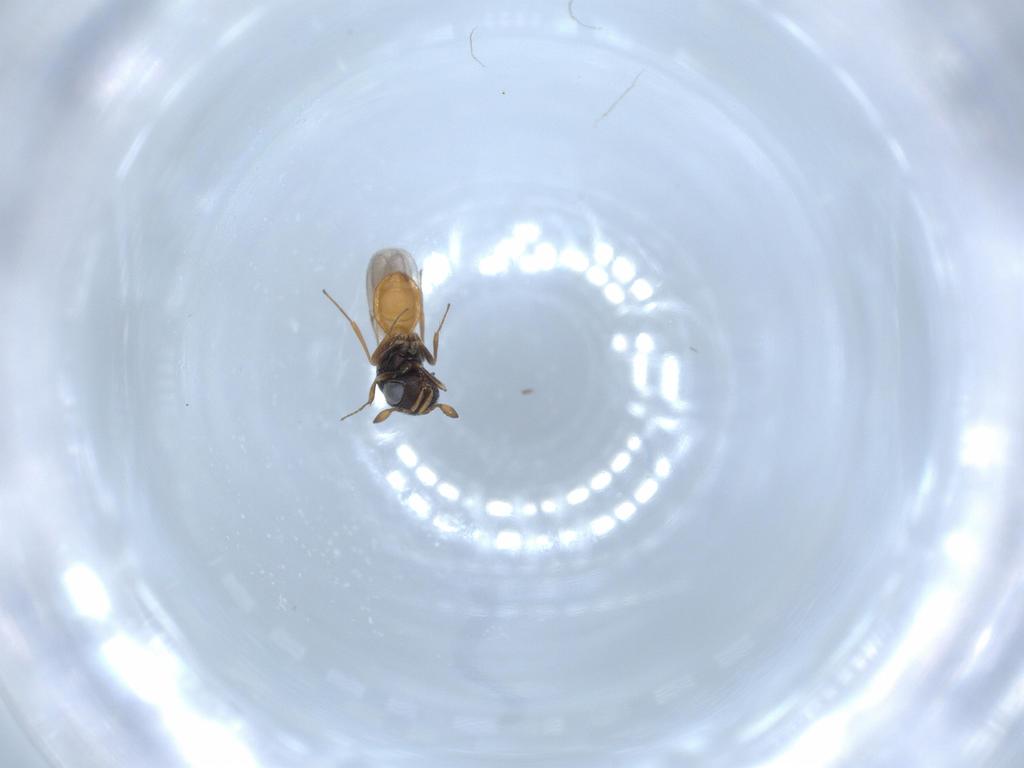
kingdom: Animalia
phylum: Arthropoda
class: Insecta
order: Hymenoptera
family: Scelionidae
